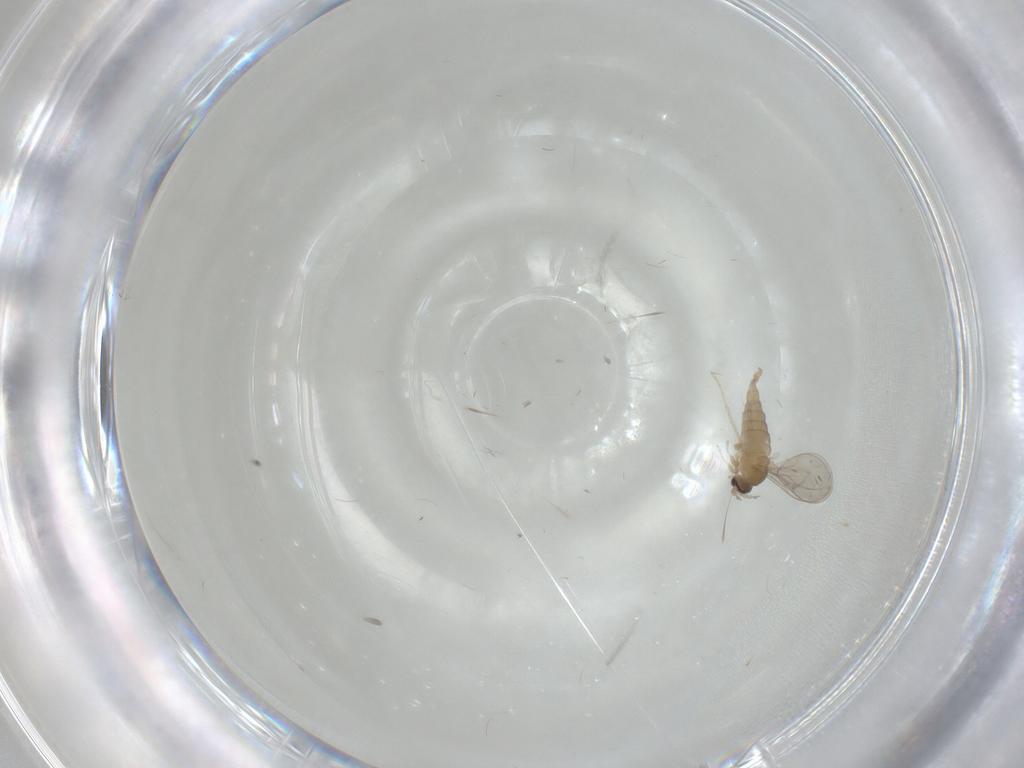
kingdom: Animalia
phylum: Arthropoda
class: Insecta
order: Diptera
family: Cecidomyiidae
